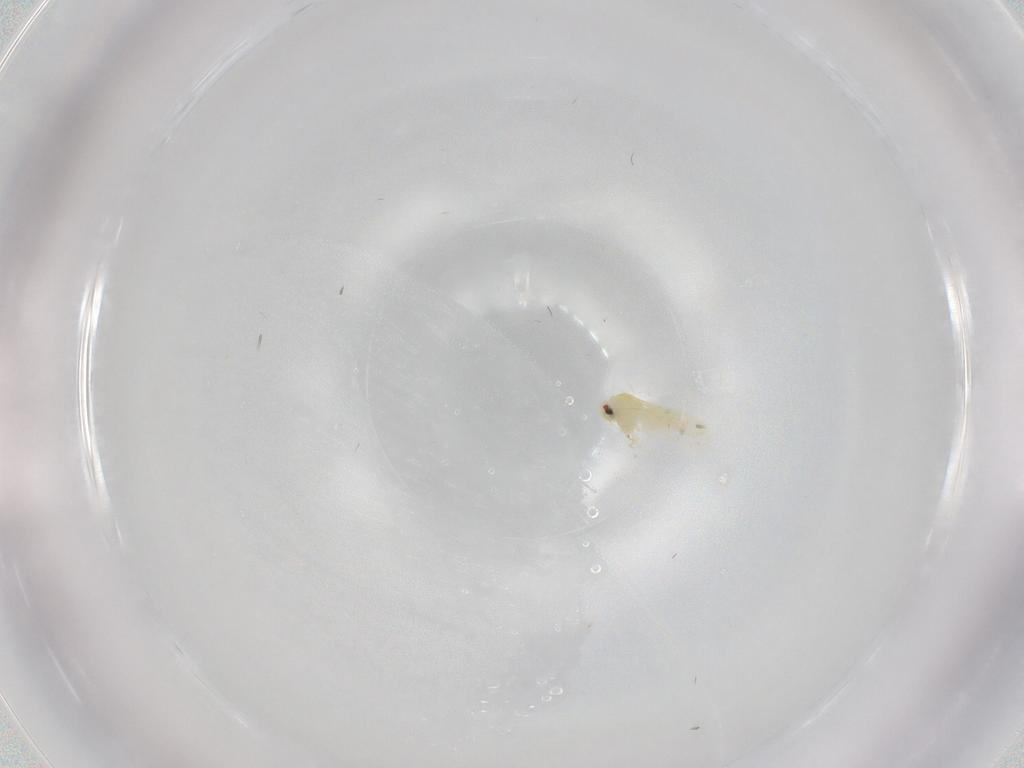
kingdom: Animalia
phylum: Arthropoda
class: Insecta
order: Hemiptera
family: Aleyrodidae
